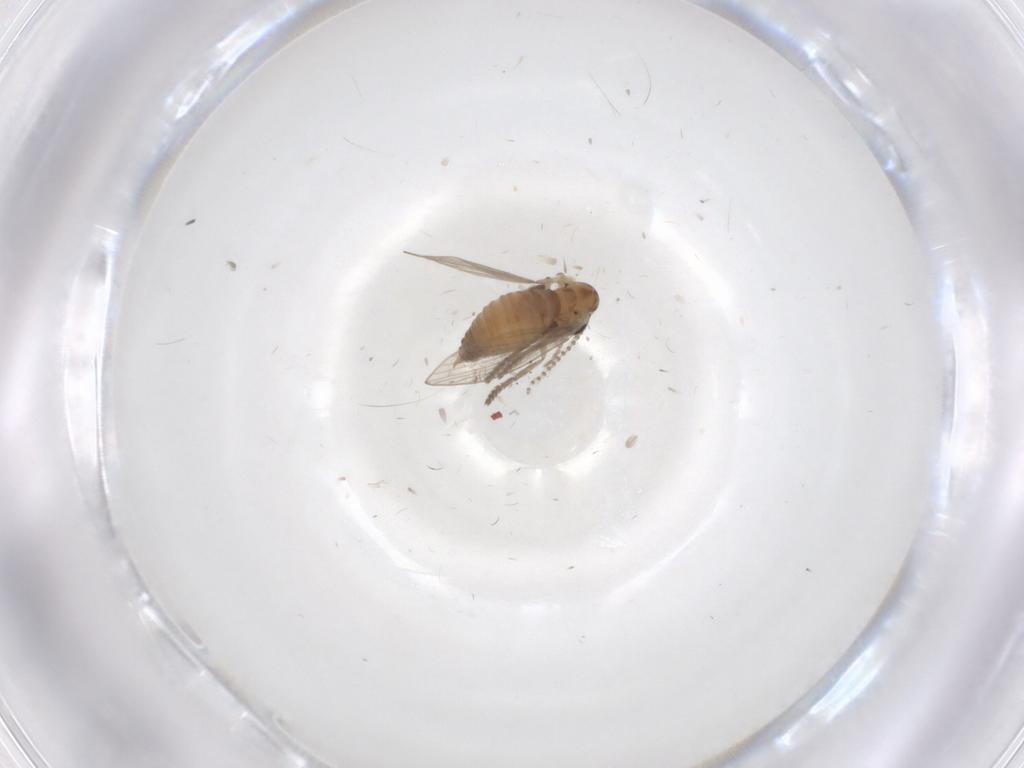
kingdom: Animalia
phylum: Arthropoda
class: Insecta
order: Diptera
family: Psychodidae
